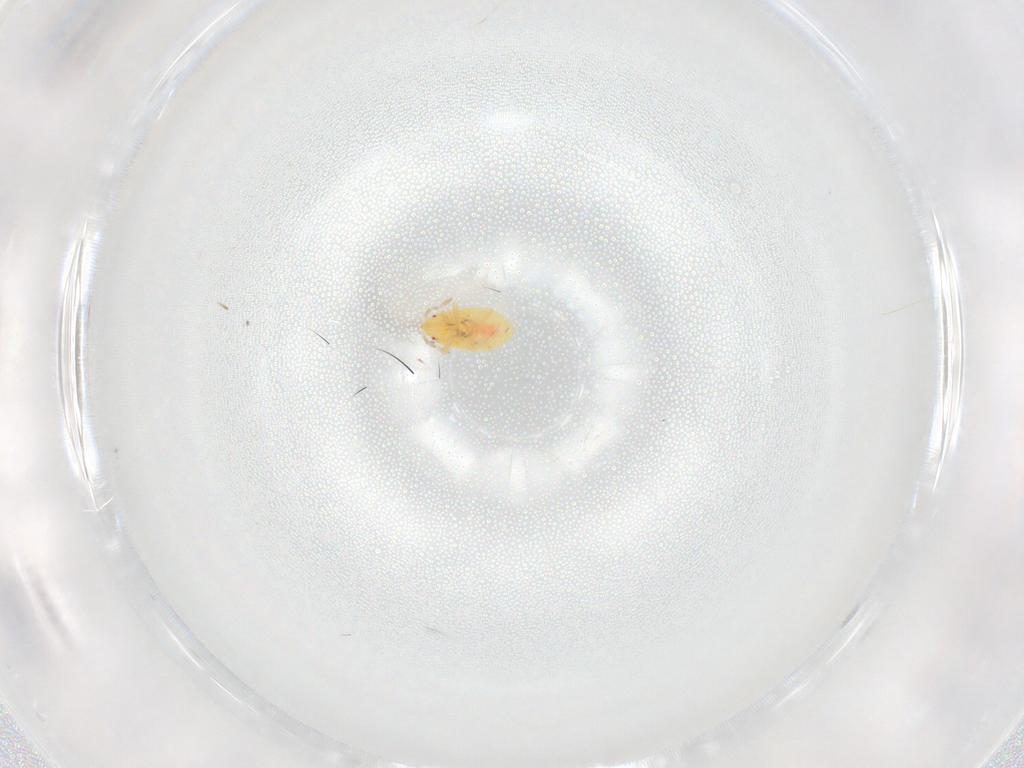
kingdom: Animalia
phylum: Arthropoda
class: Insecta
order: Hemiptera
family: Anthocoridae
